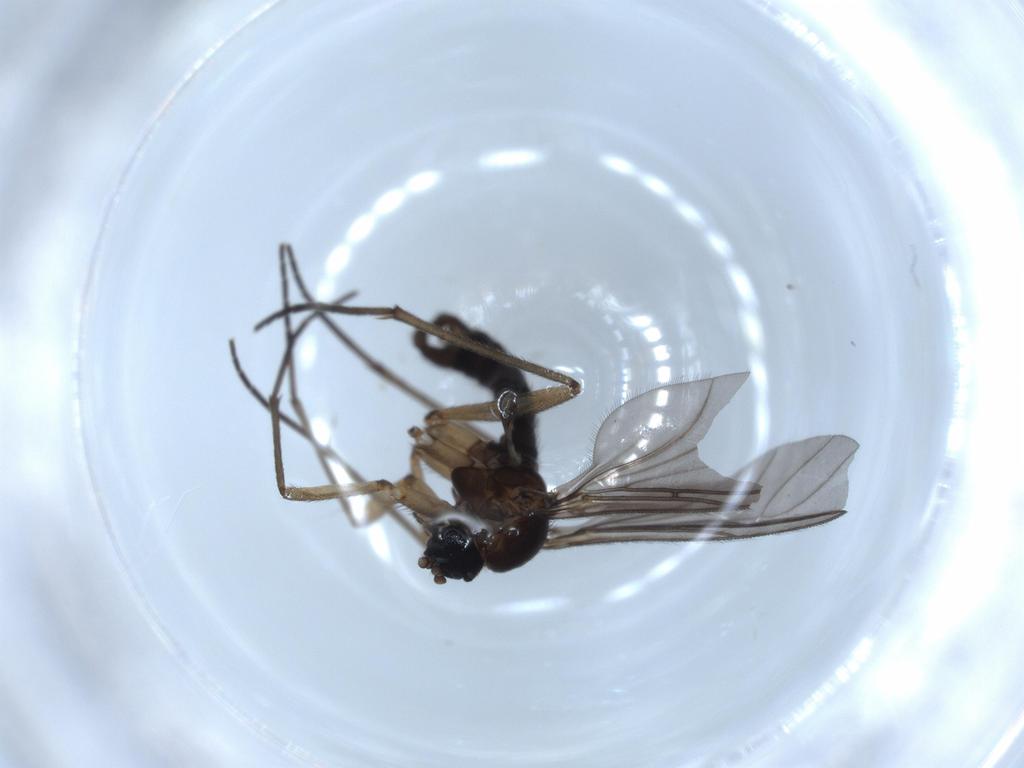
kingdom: Animalia
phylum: Arthropoda
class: Insecta
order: Diptera
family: Sciaridae
